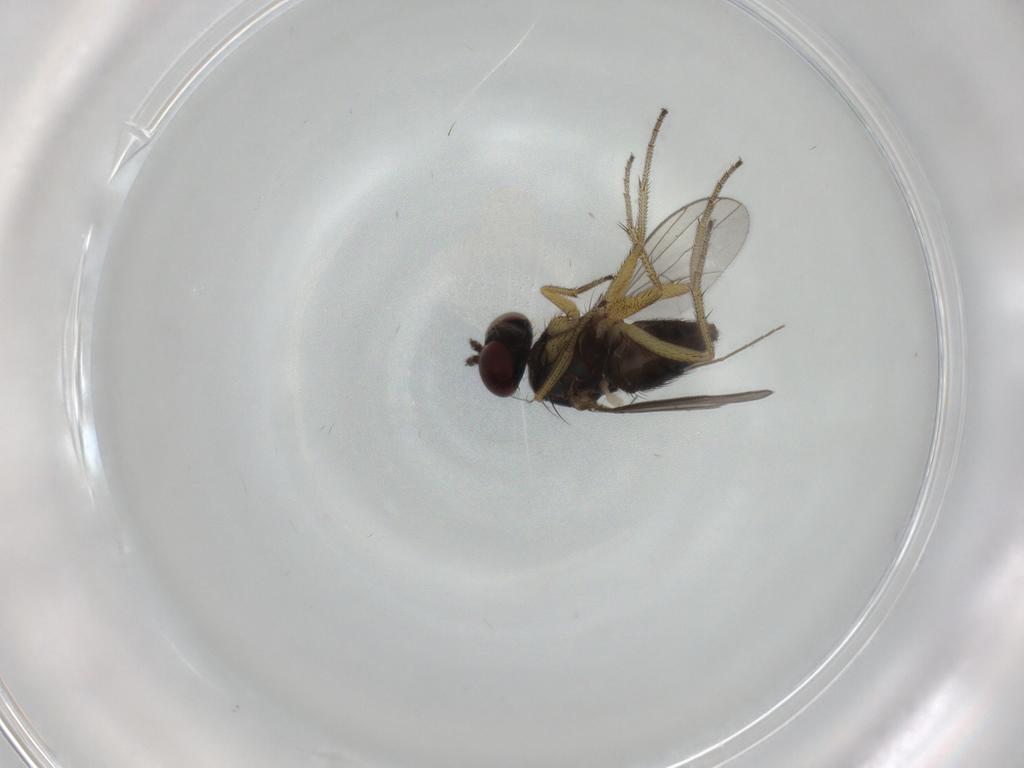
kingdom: Animalia
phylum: Arthropoda
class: Insecta
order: Diptera
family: Dolichopodidae
